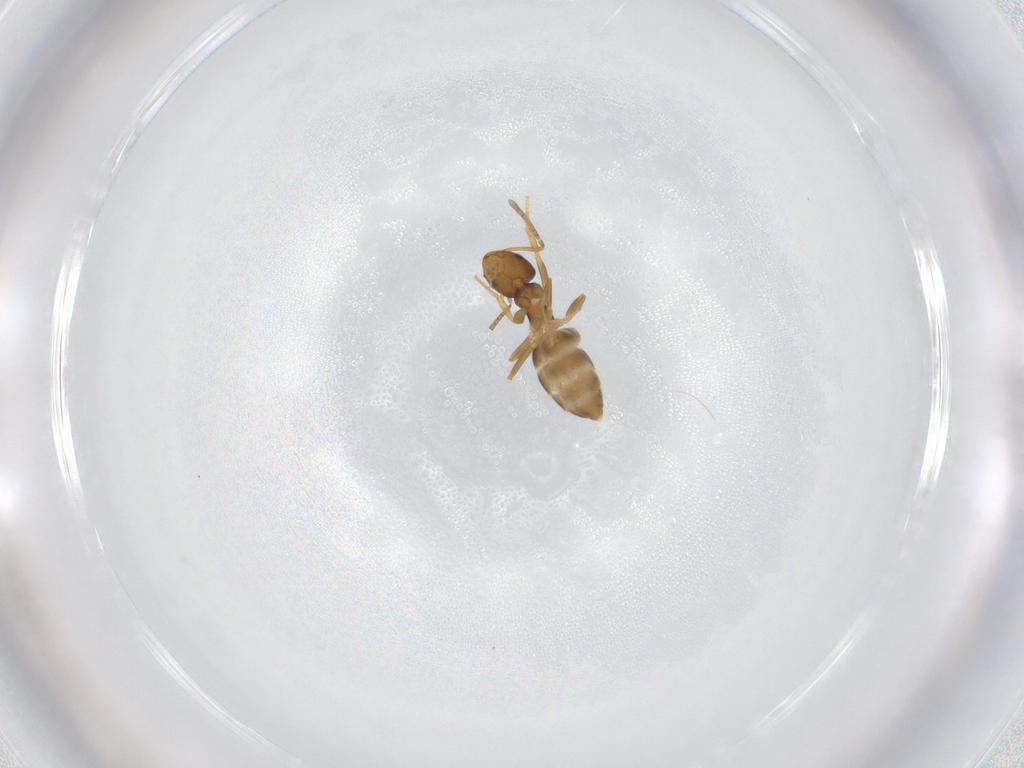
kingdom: Animalia
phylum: Arthropoda
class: Insecta
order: Hymenoptera
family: Formicidae
